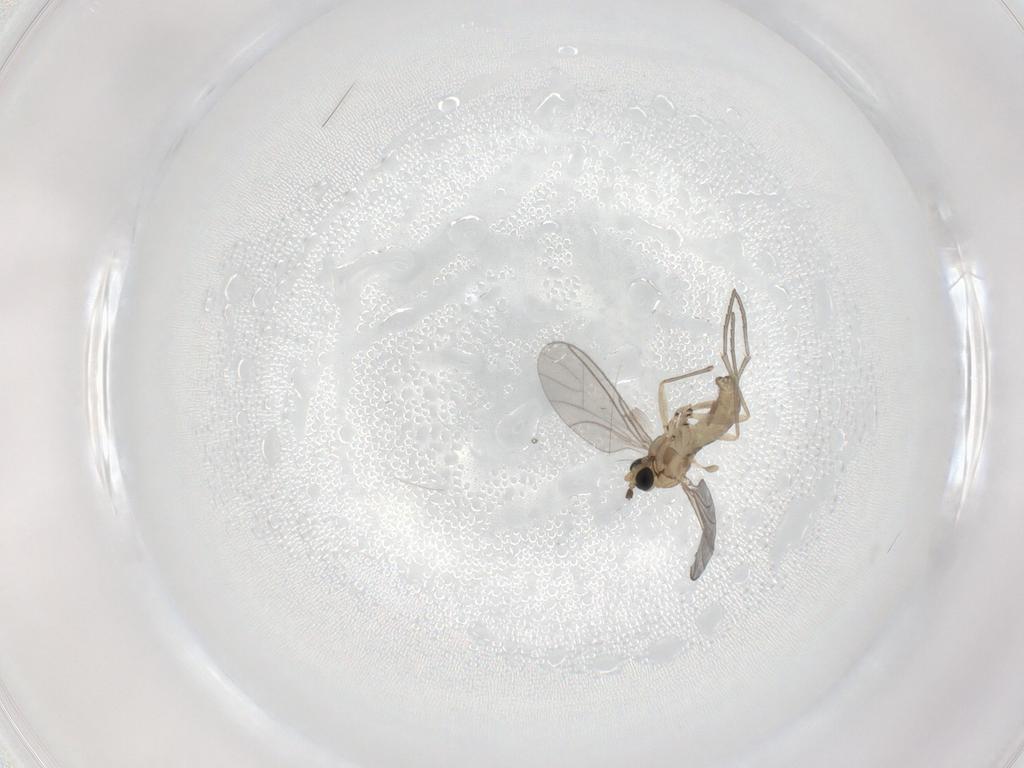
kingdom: Animalia
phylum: Arthropoda
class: Insecta
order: Diptera
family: Sciaridae
